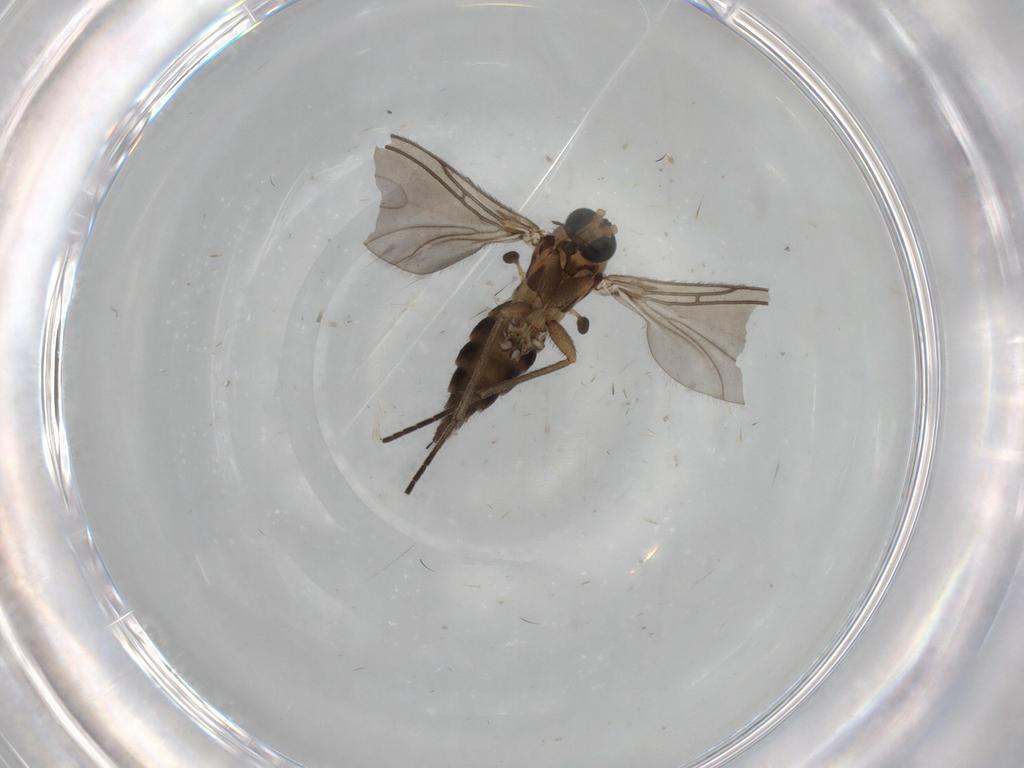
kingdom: Animalia
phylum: Arthropoda
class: Insecta
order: Diptera
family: Sciaridae
